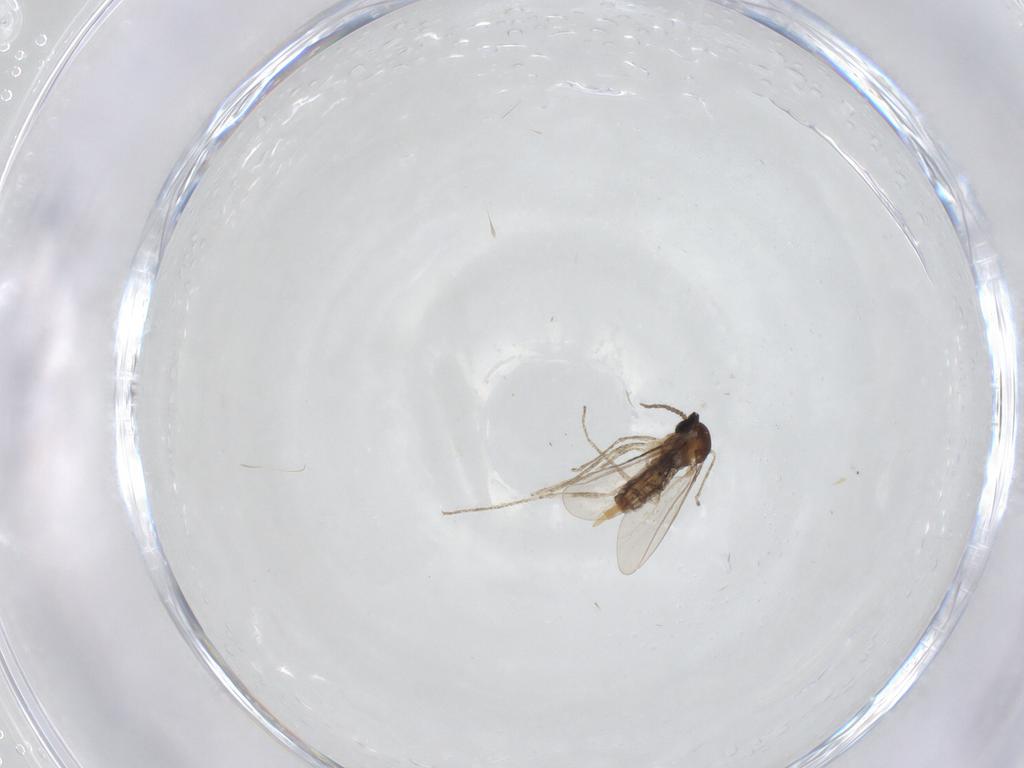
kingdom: Animalia
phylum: Arthropoda
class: Insecta
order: Diptera
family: Cecidomyiidae
